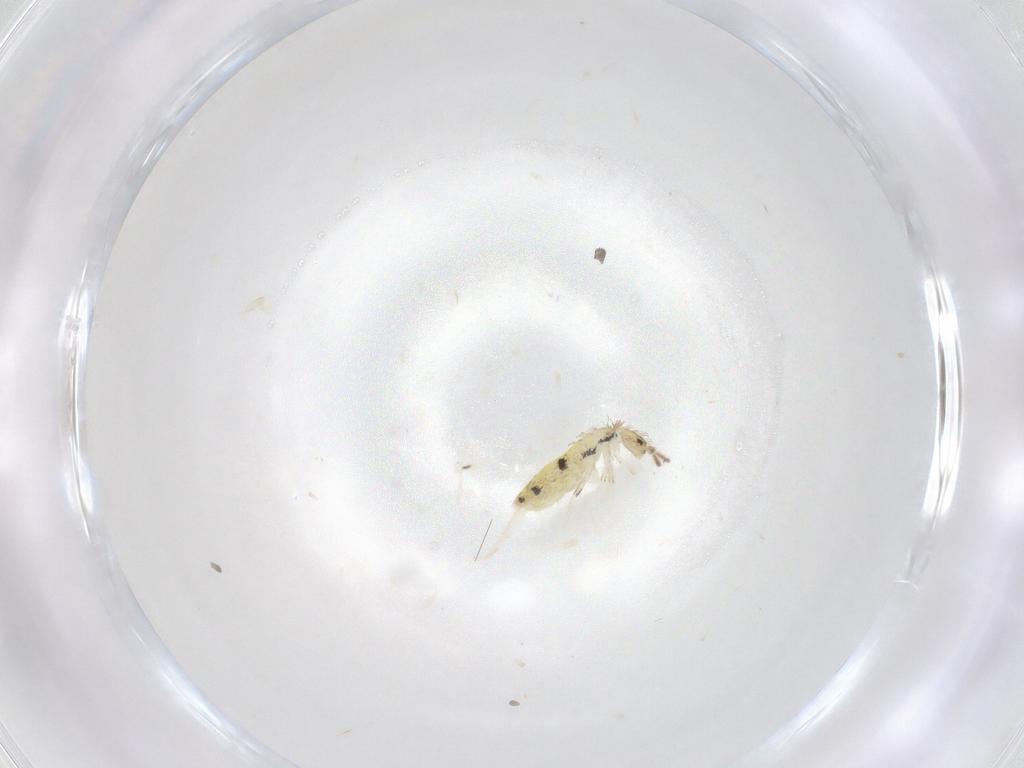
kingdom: Animalia
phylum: Arthropoda
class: Collembola
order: Entomobryomorpha
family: Entomobryidae
